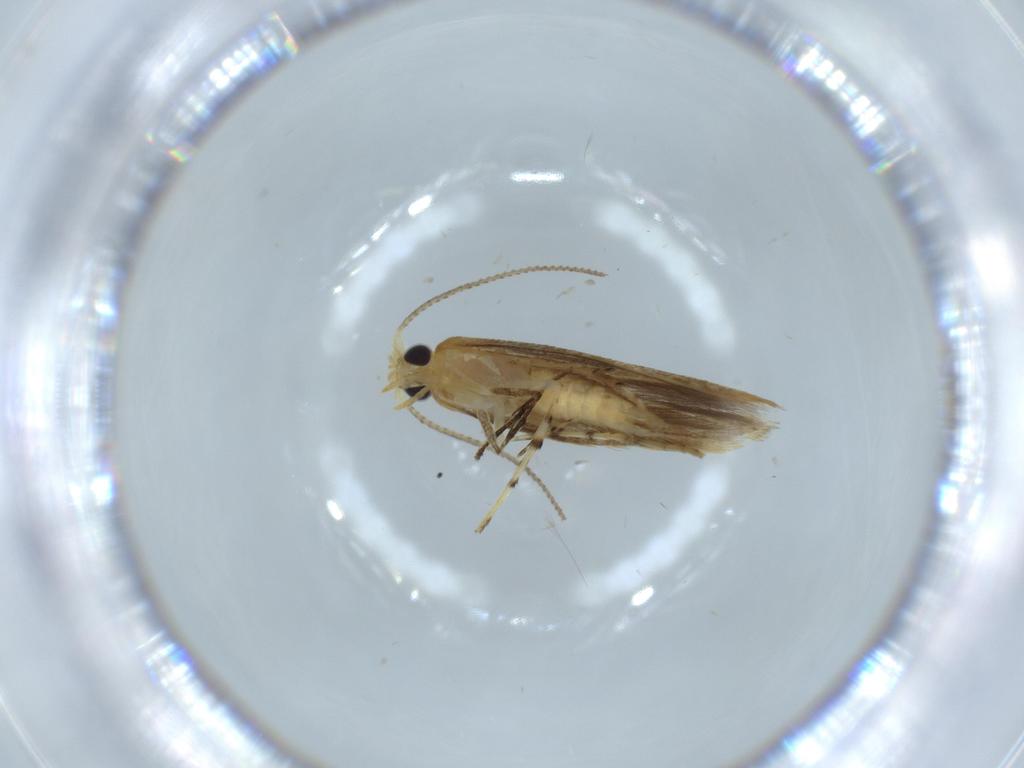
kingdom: Animalia
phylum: Arthropoda
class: Insecta
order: Lepidoptera
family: Argyresthiidae
